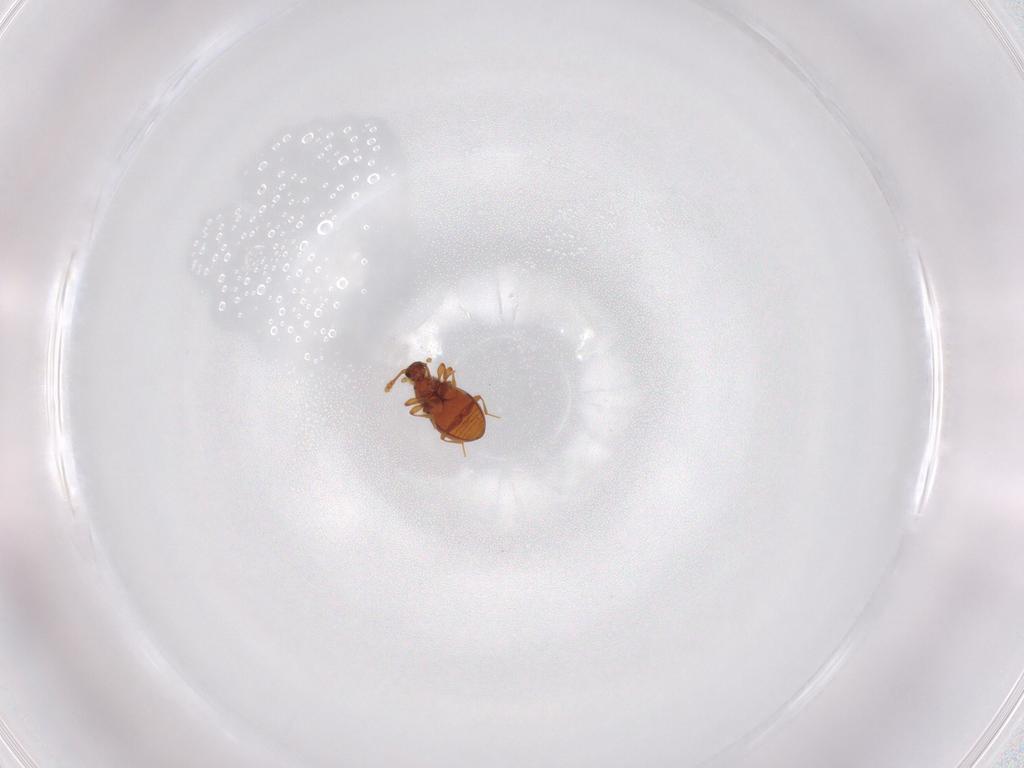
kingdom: Animalia
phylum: Arthropoda
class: Insecta
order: Coleoptera
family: Staphylinidae
